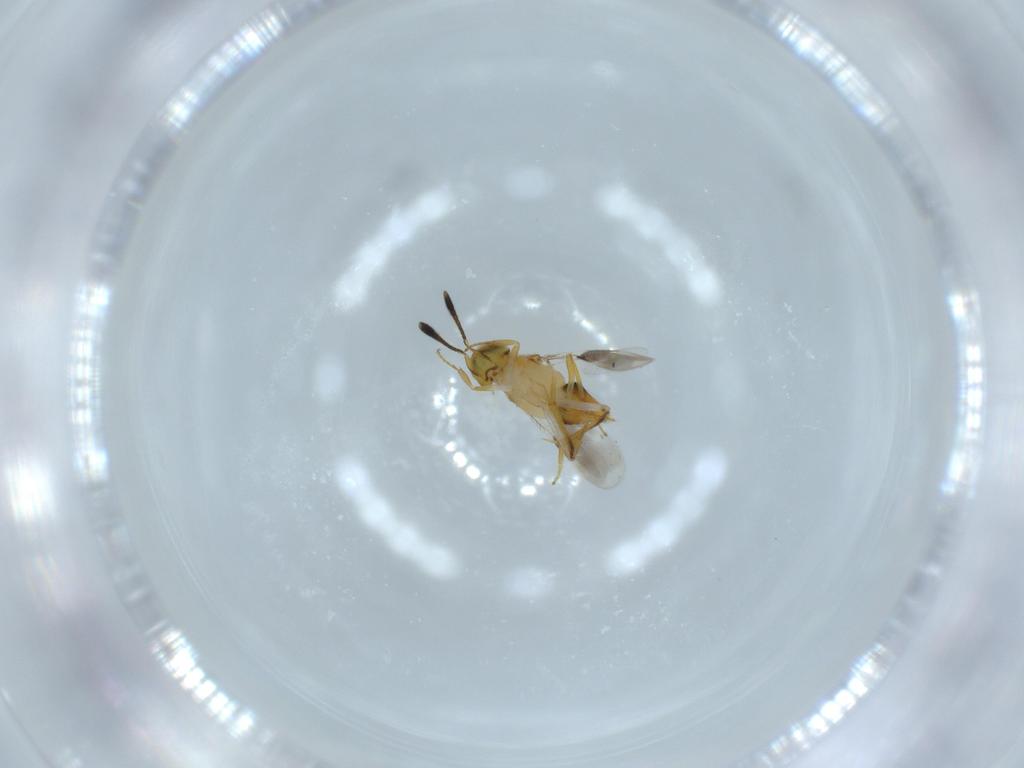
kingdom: Animalia
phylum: Arthropoda
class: Insecta
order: Hymenoptera
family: Encyrtidae
